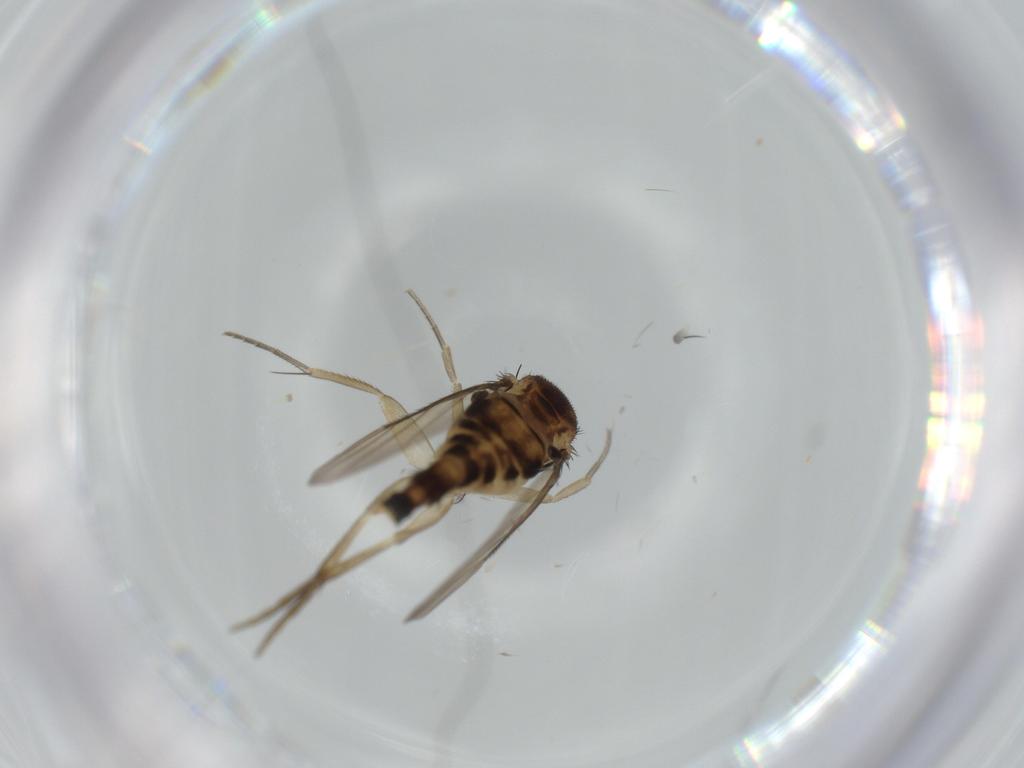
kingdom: Animalia
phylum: Arthropoda
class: Insecta
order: Diptera
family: Phoridae
